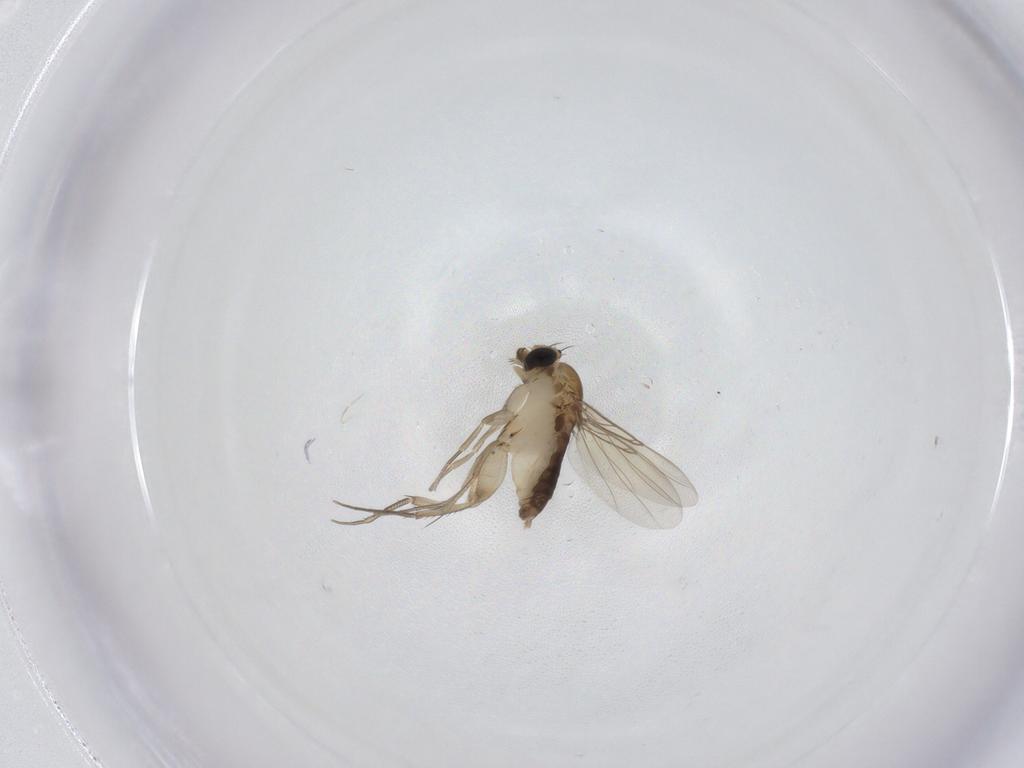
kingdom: Animalia
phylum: Arthropoda
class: Insecta
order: Diptera
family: Phoridae
